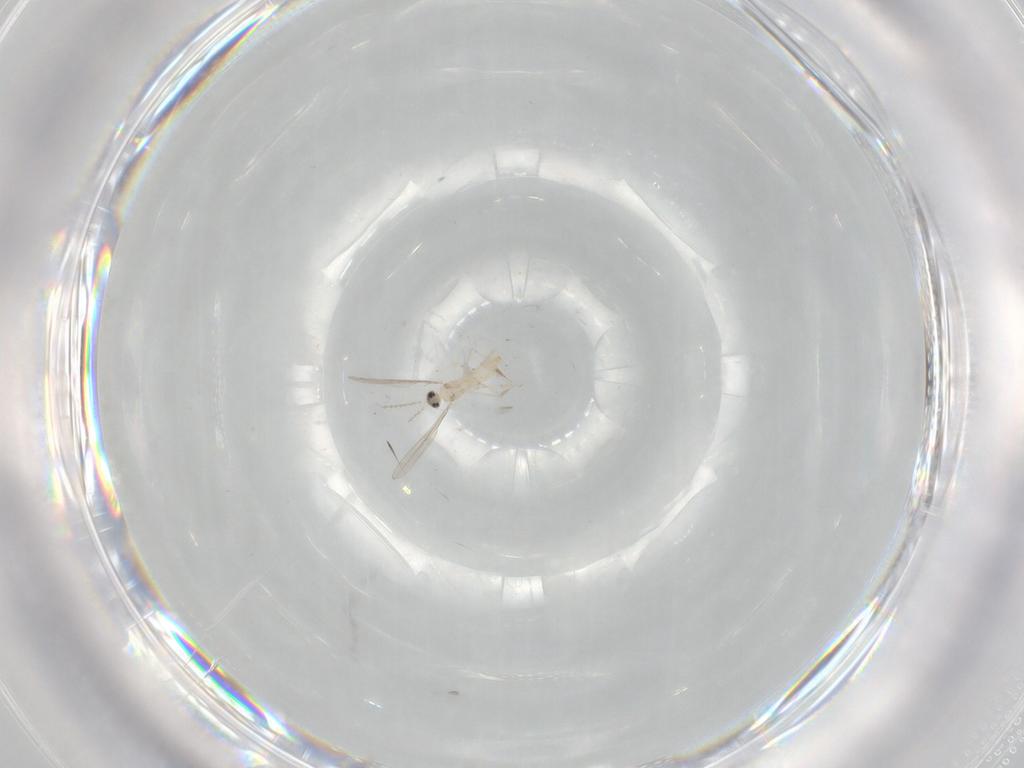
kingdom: Animalia
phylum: Arthropoda
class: Insecta
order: Diptera
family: Cecidomyiidae
